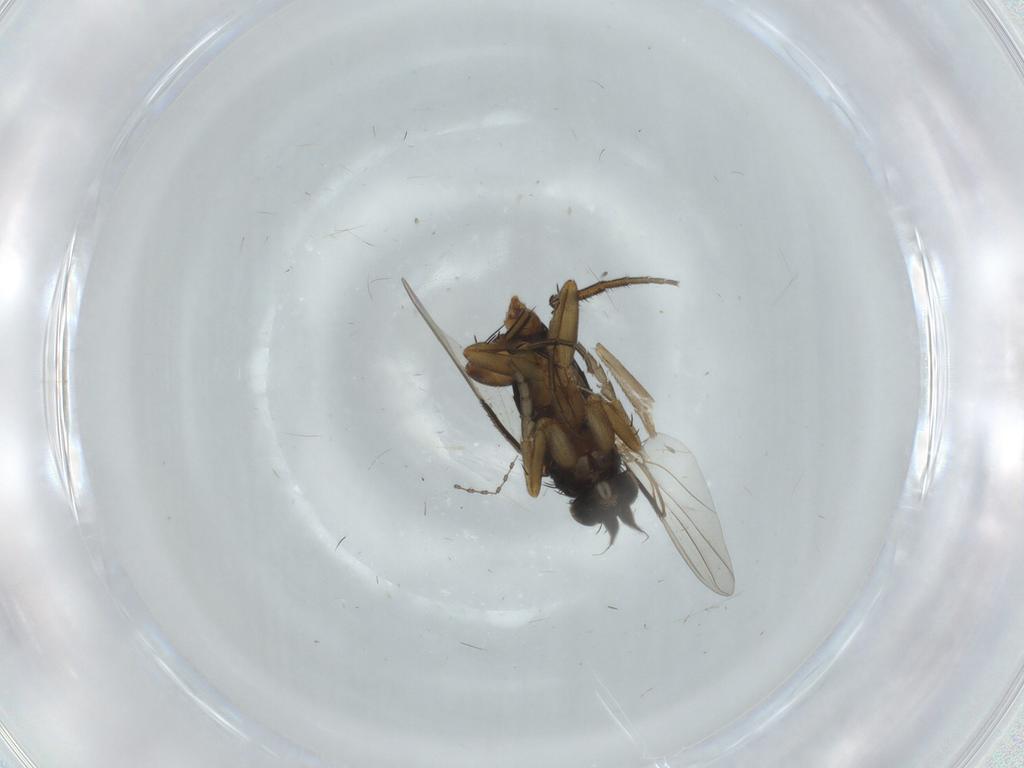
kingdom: Animalia
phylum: Arthropoda
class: Insecta
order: Diptera
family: Phoridae
